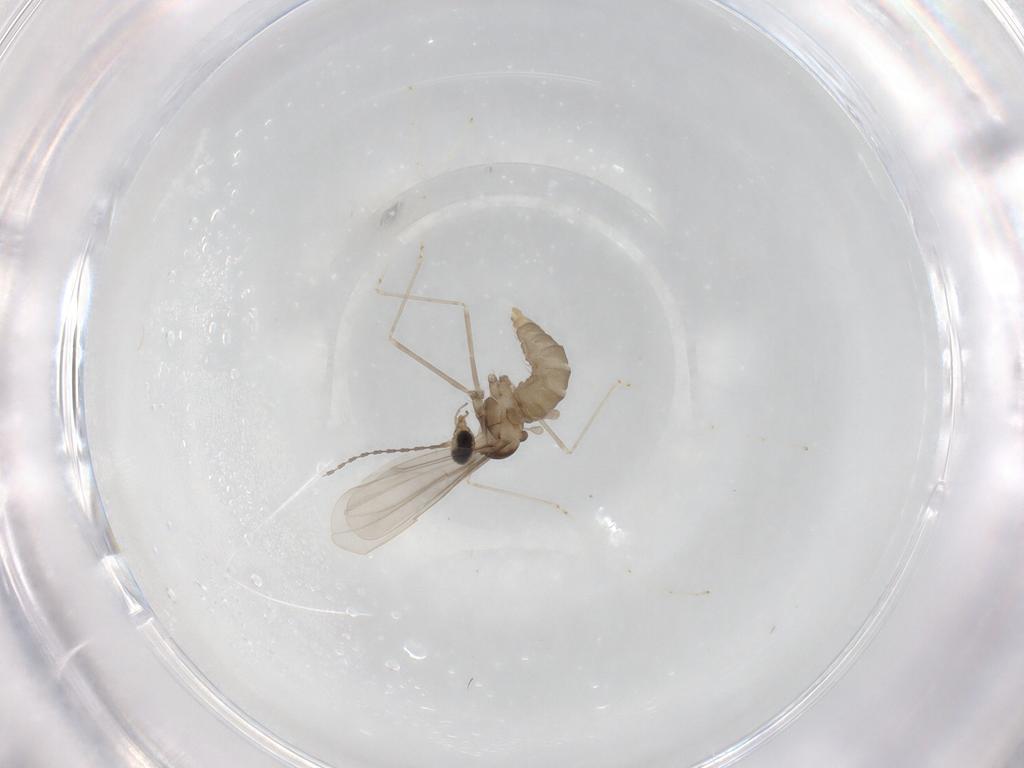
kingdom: Animalia
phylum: Arthropoda
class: Insecta
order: Diptera
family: Cecidomyiidae
